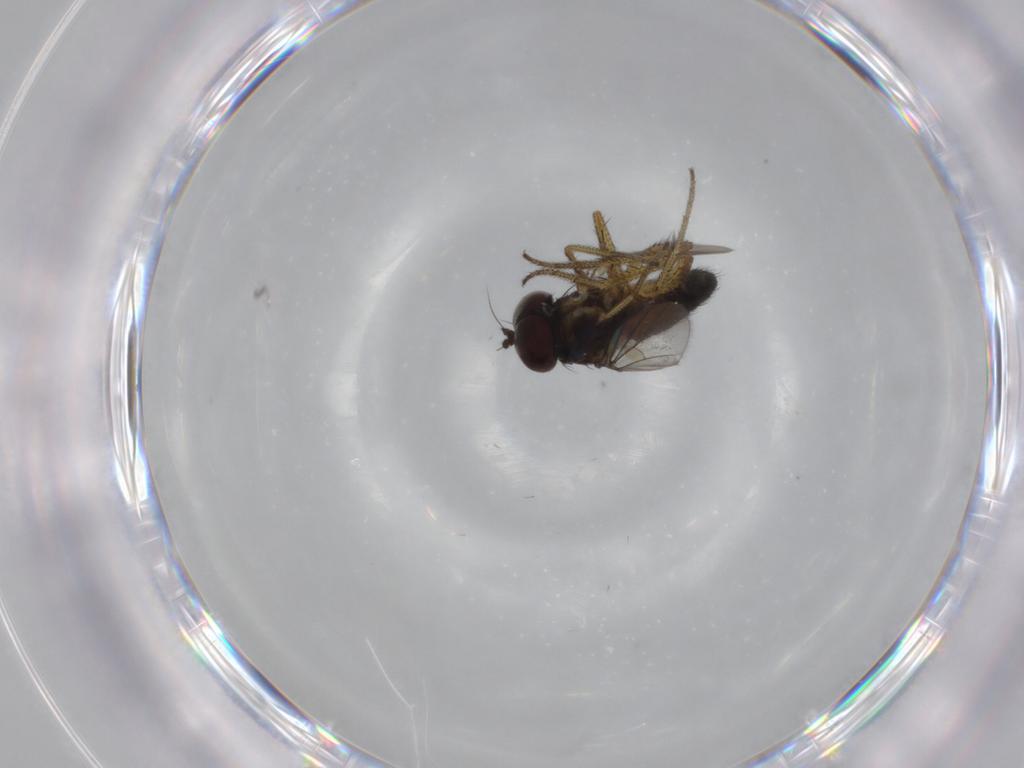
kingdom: Animalia
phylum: Arthropoda
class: Insecta
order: Diptera
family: Dolichopodidae
